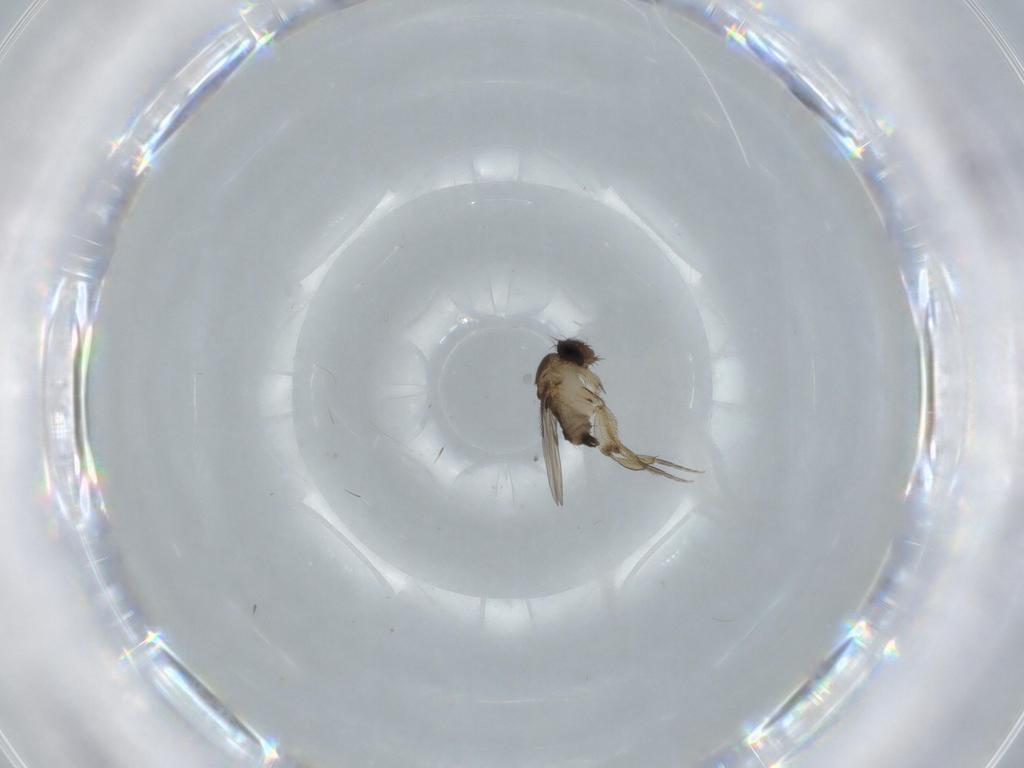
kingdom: Animalia
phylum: Arthropoda
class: Insecta
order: Diptera
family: Phoridae
